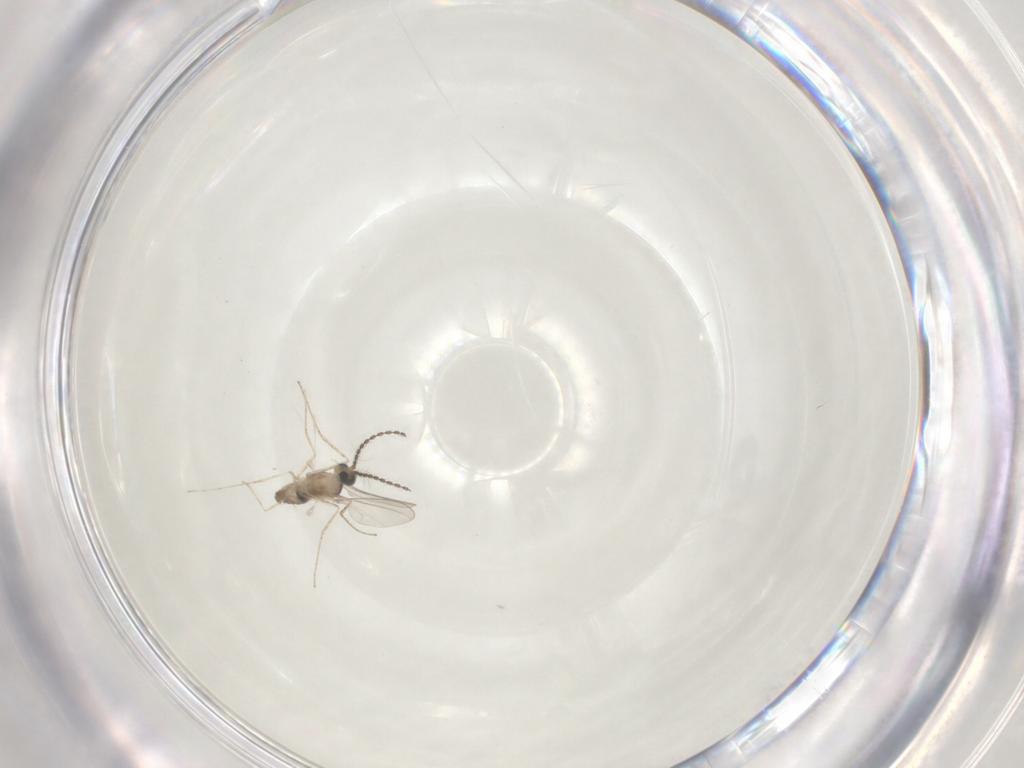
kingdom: Animalia
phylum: Arthropoda
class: Insecta
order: Diptera
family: Cecidomyiidae
